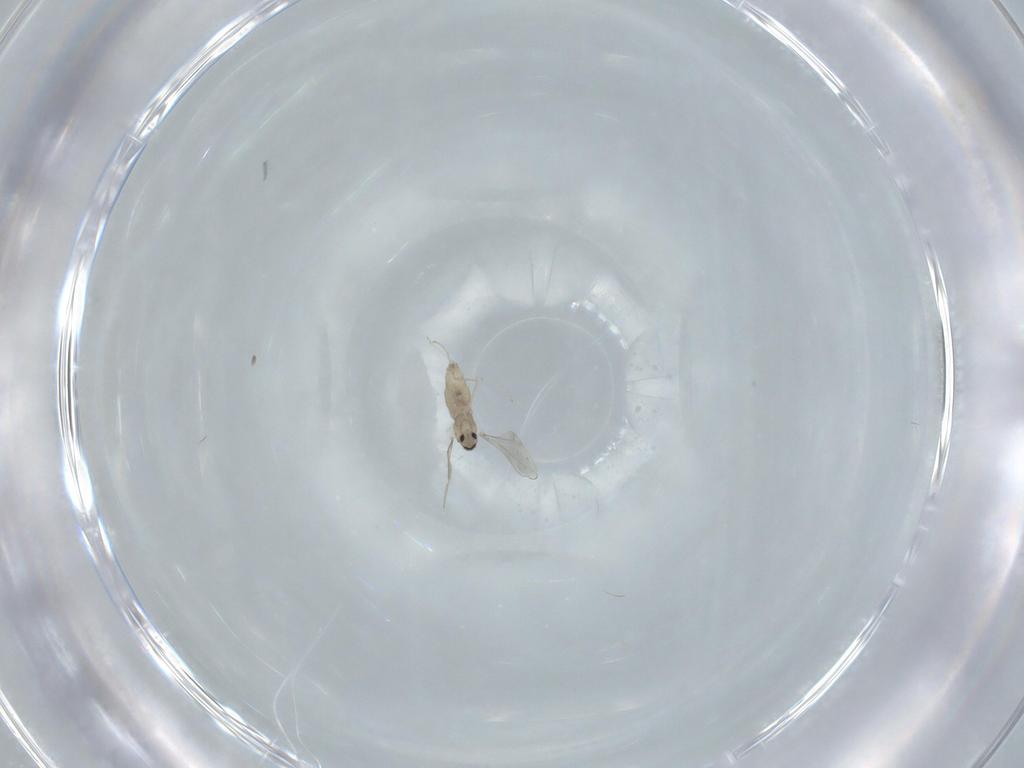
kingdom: Animalia
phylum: Arthropoda
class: Insecta
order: Diptera
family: Cecidomyiidae
